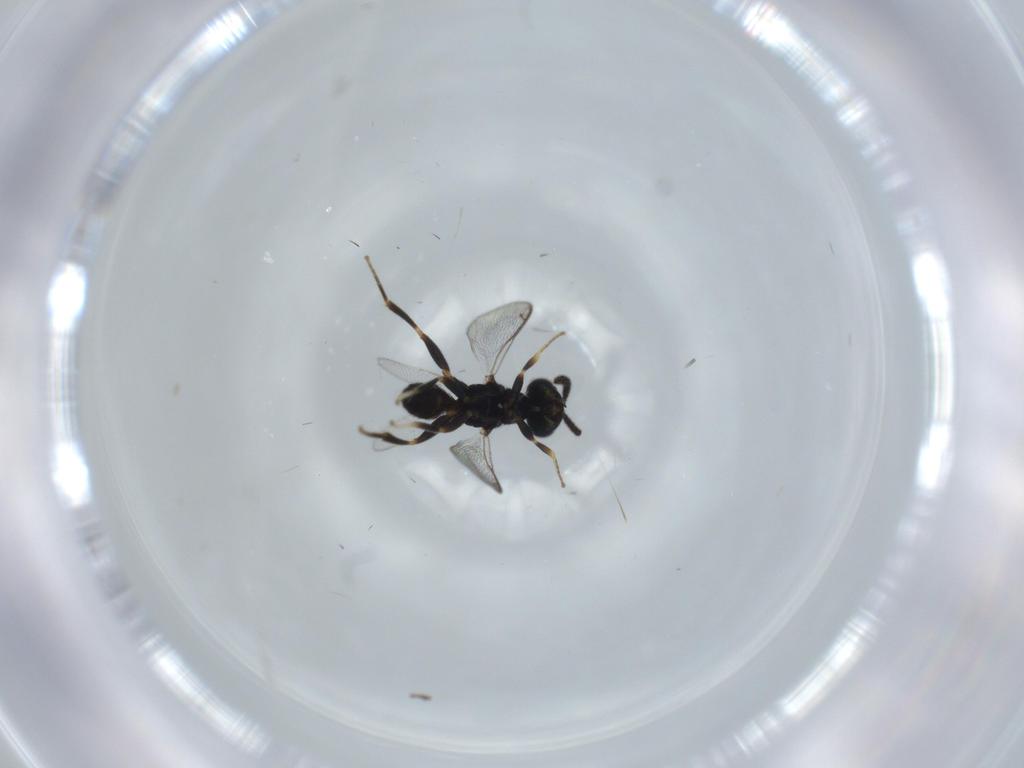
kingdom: Animalia
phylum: Arthropoda
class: Insecta
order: Hymenoptera
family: Cleonyminae
